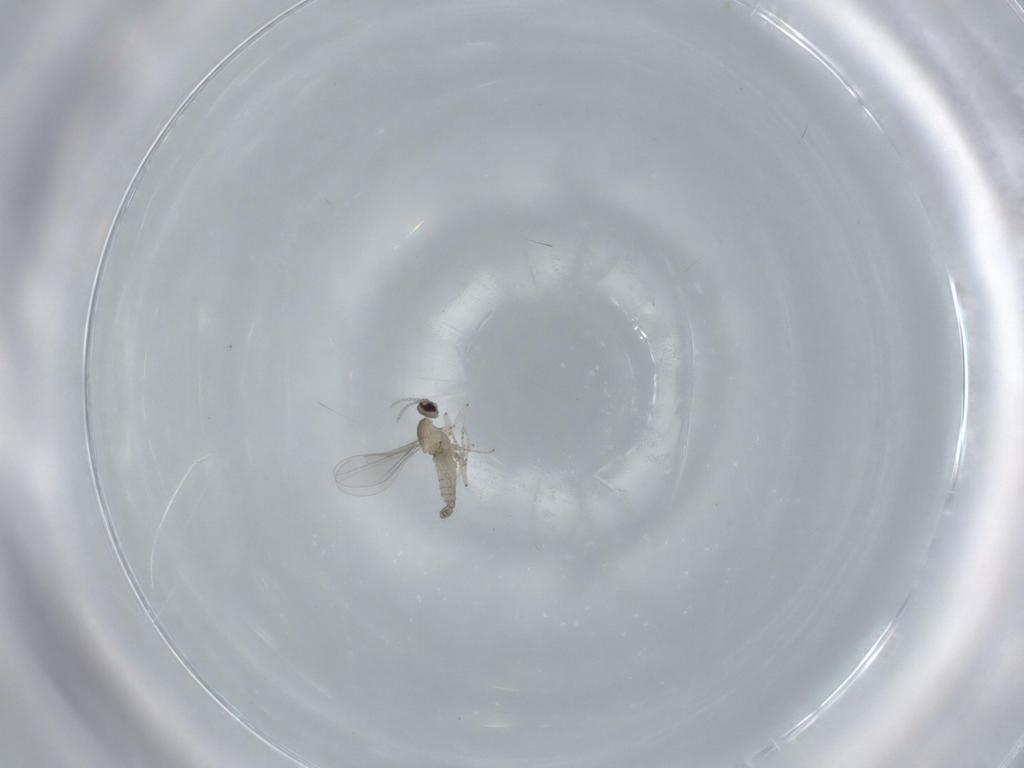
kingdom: Animalia
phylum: Arthropoda
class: Insecta
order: Diptera
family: Cecidomyiidae
